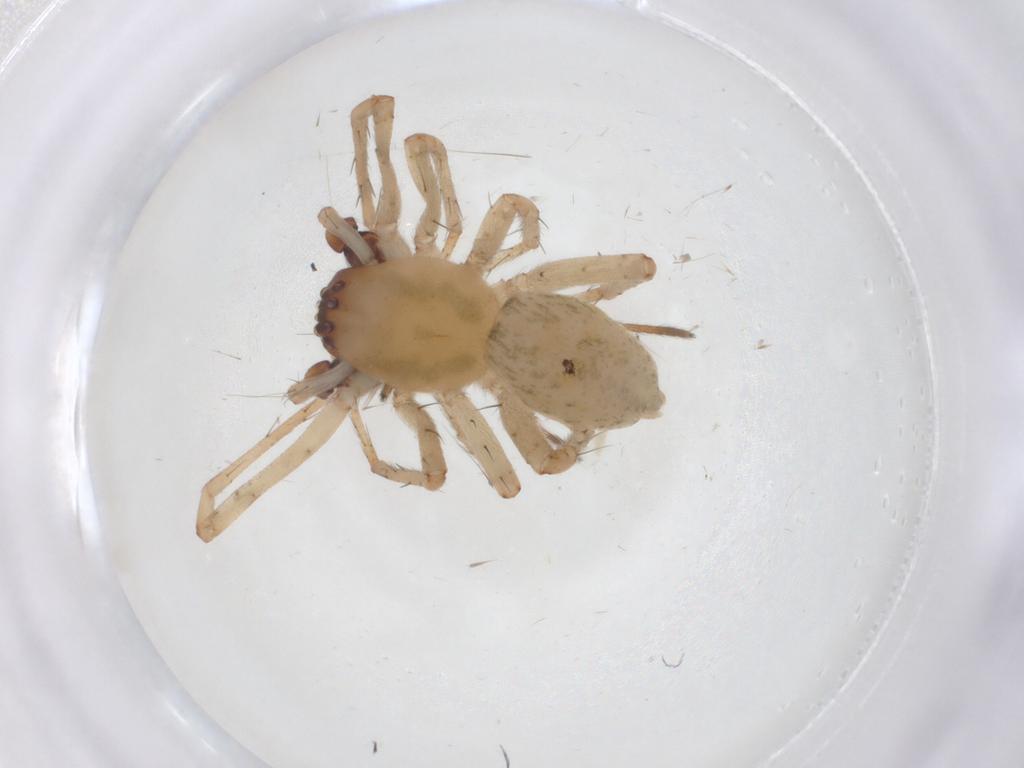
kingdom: Animalia
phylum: Arthropoda
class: Arachnida
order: Araneae
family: Anyphaenidae
